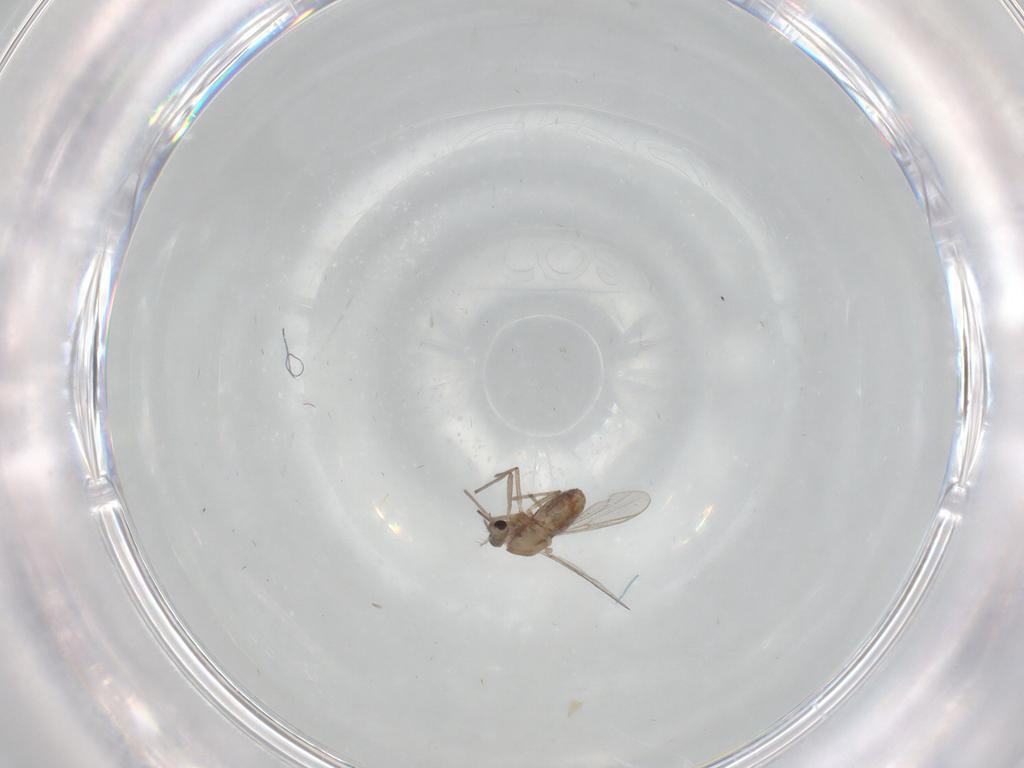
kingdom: Animalia
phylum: Arthropoda
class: Insecta
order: Diptera
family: Chironomidae
